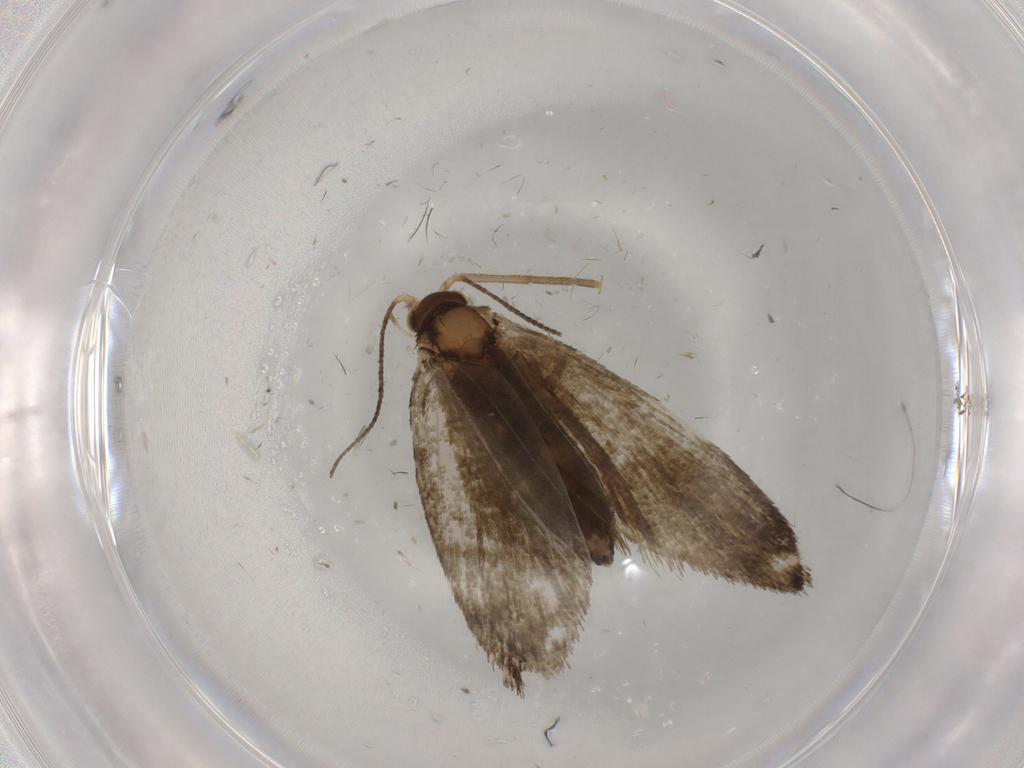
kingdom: Animalia
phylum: Arthropoda
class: Insecta
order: Lepidoptera
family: Tineidae
